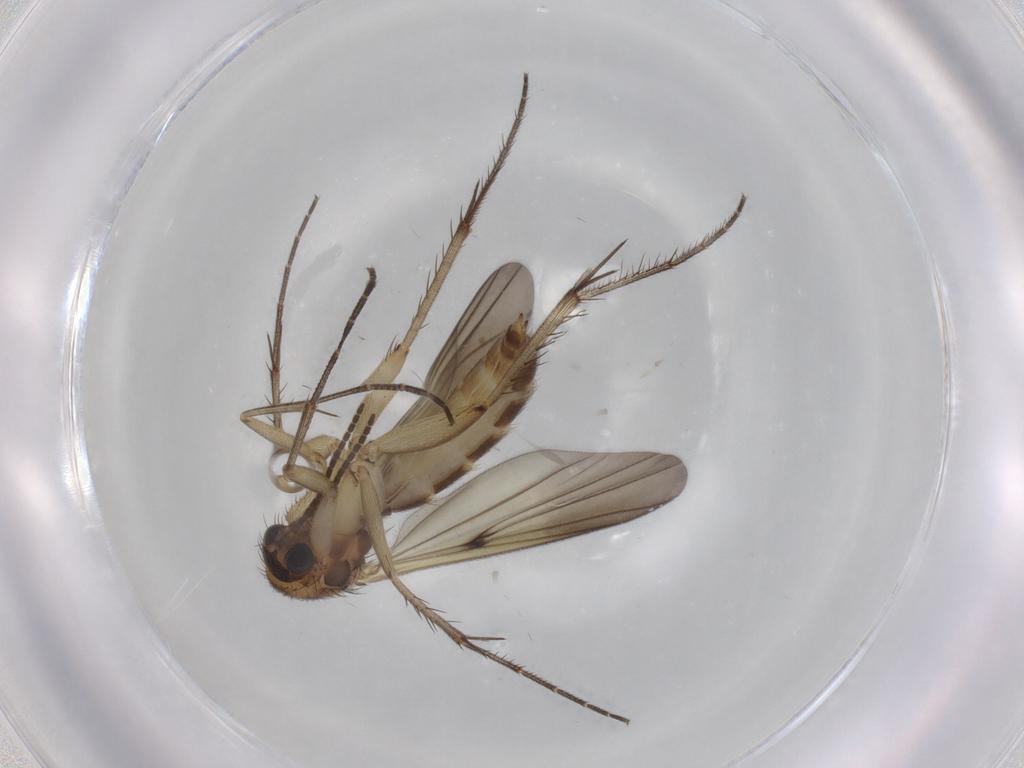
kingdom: Animalia
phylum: Arthropoda
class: Insecta
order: Diptera
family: Mycetophilidae
